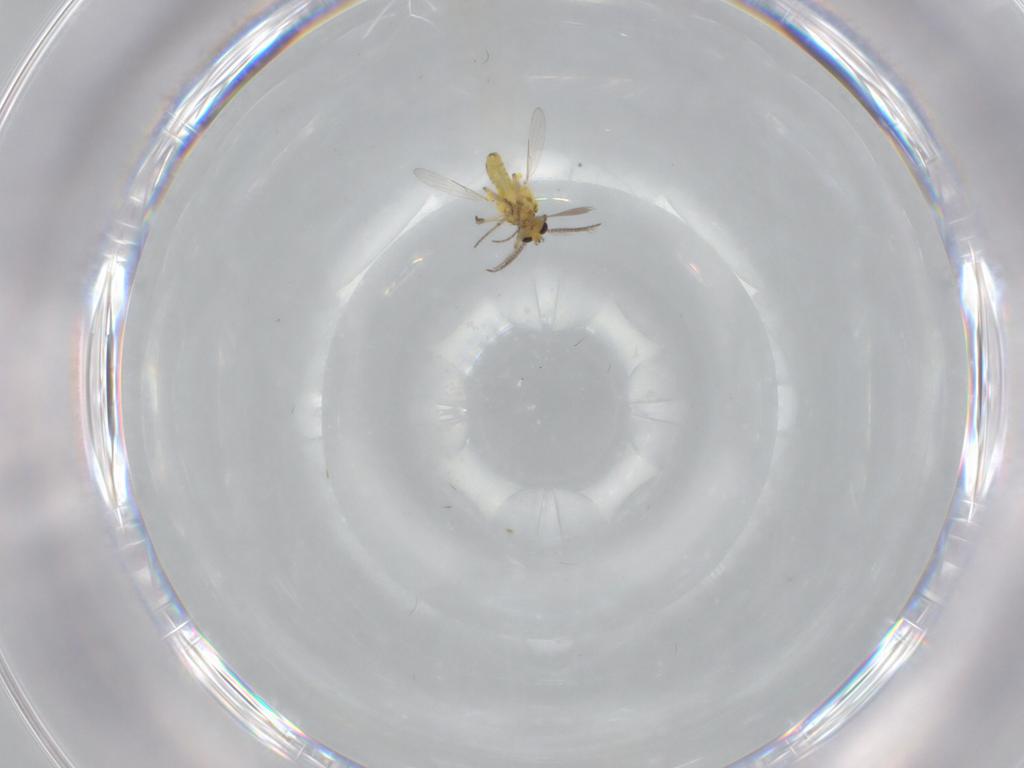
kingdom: Animalia
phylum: Arthropoda
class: Insecta
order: Diptera
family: Ceratopogonidae
